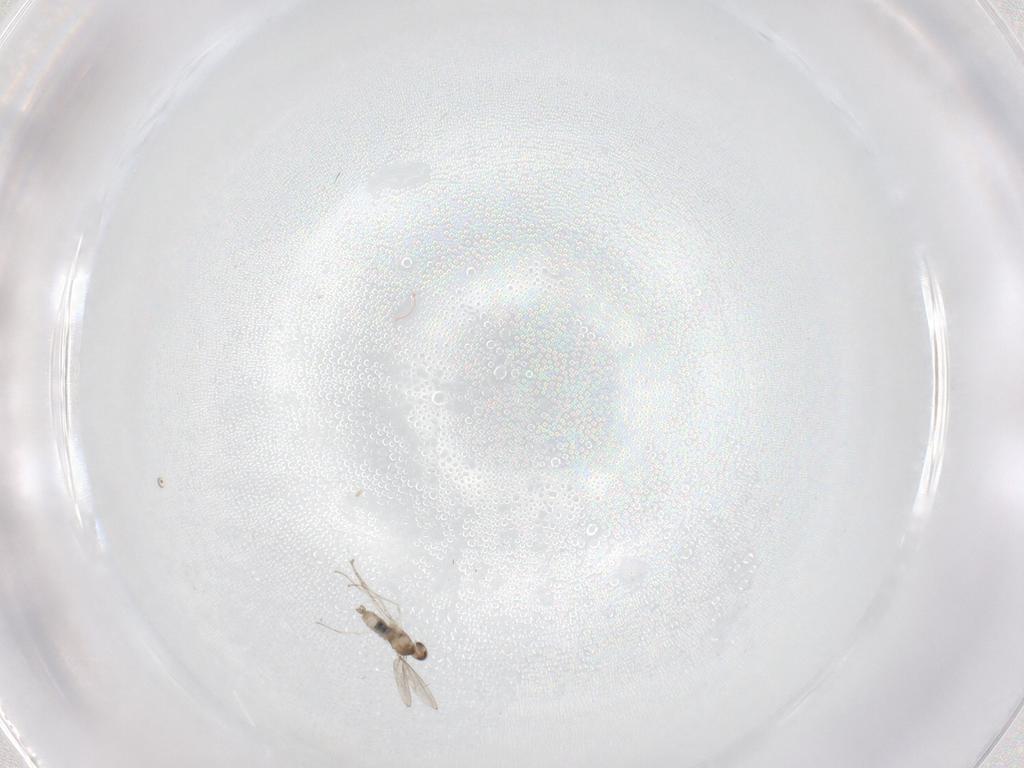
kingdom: Animalia
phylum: Arthropoda
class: Insecta
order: Diptera
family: Cecidomyiidae
